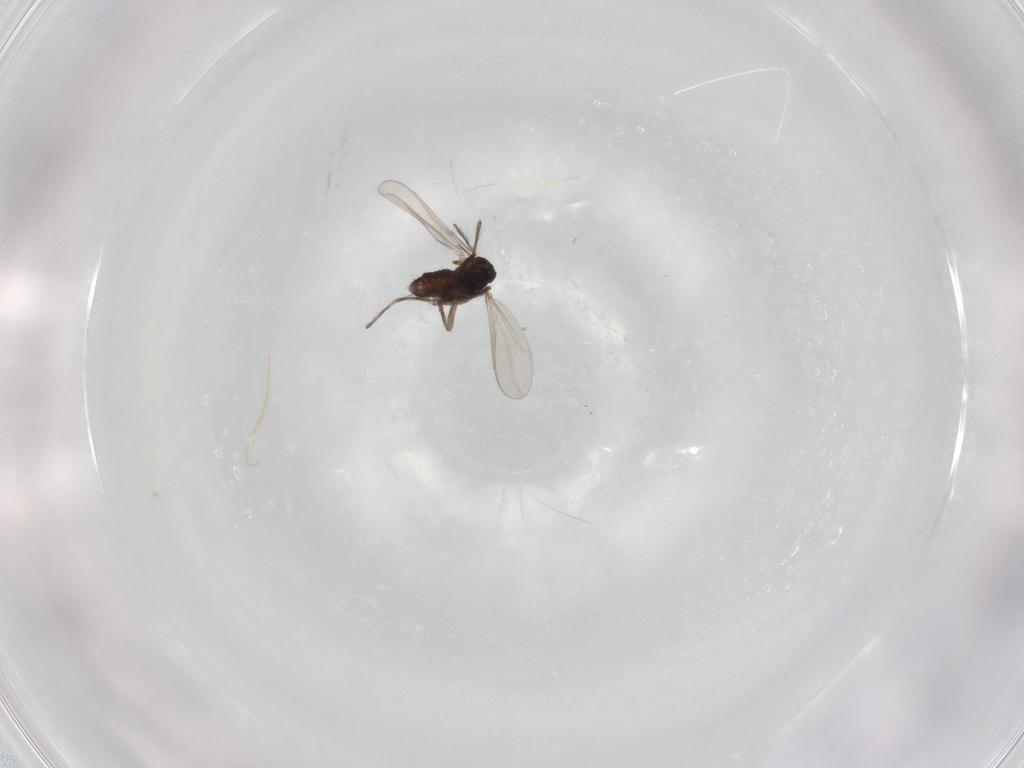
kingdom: Animalia
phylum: Arthropoda
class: Insecta
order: Diptera
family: Chironomidae
